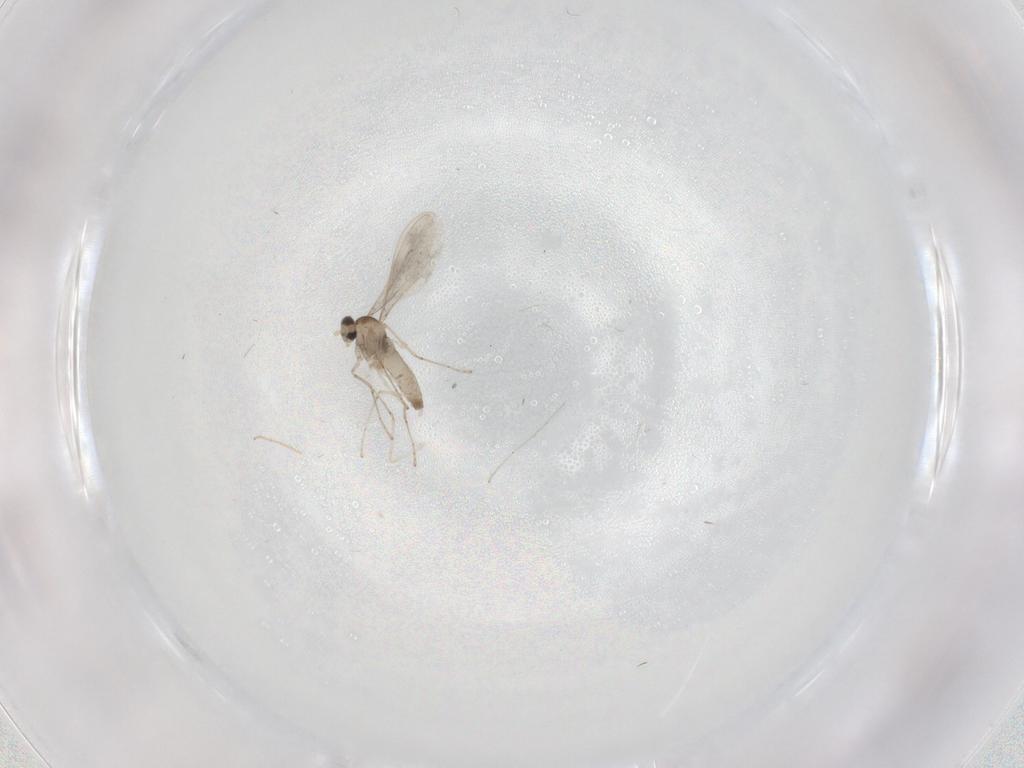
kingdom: Animalia
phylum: Arthropoda
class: Insecta
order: Diptera
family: Cecidomyiidae
